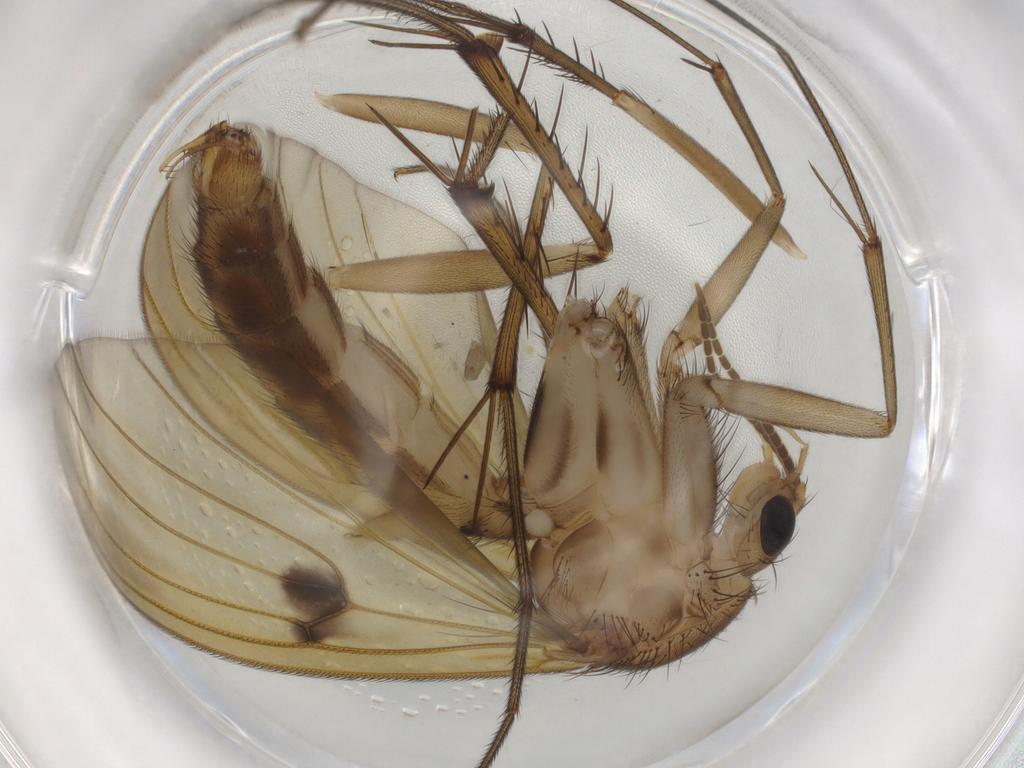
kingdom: Animalia
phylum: Arthropoda
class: Insecta
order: Diptera
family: Mycetophilidae
